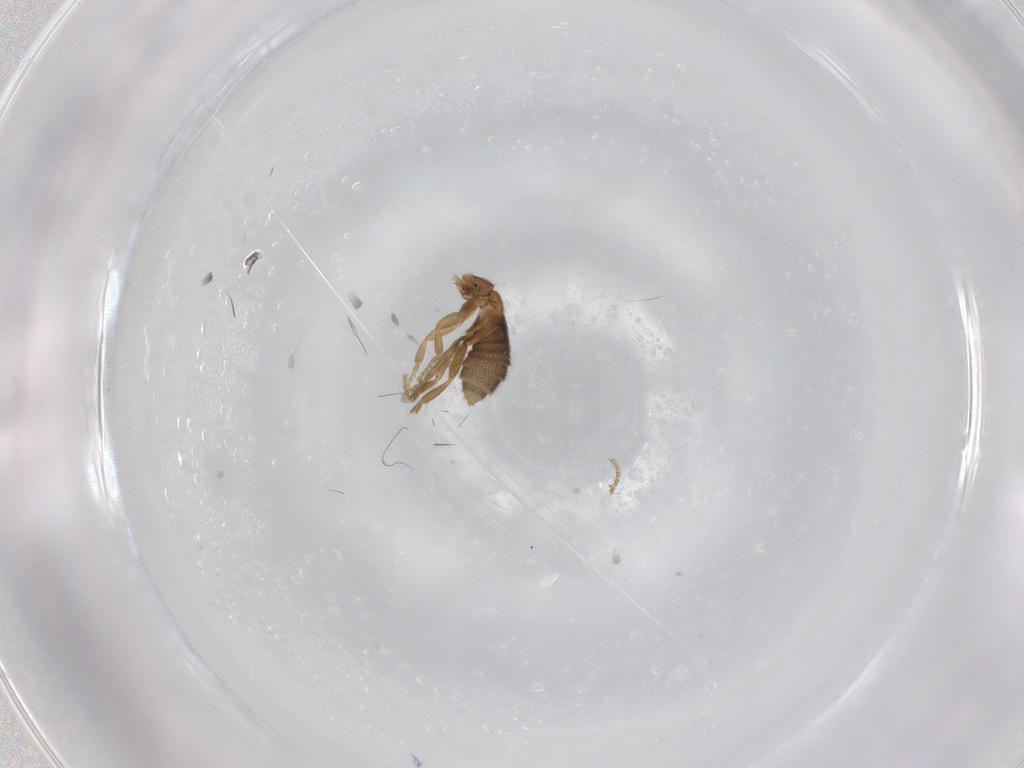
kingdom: Animalia
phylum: Arthropoda
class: Insecta
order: Diptera
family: Phoridae
